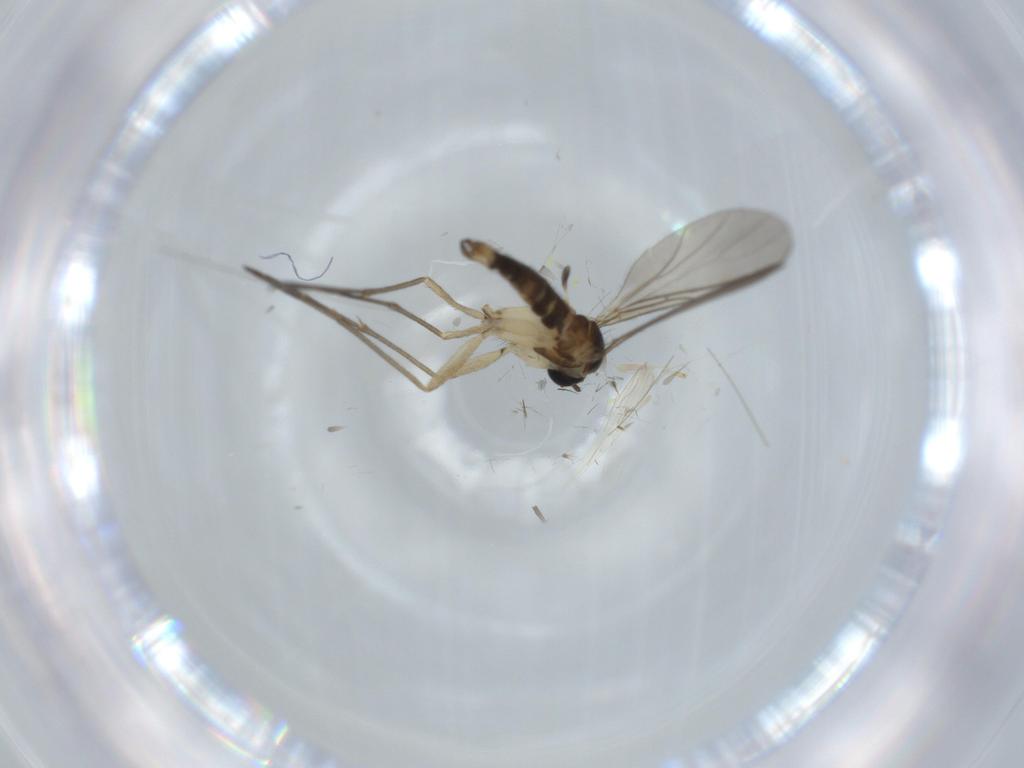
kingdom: Animalia
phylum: Arthropoda
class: Insecta
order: Diptera
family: Sciaridae
